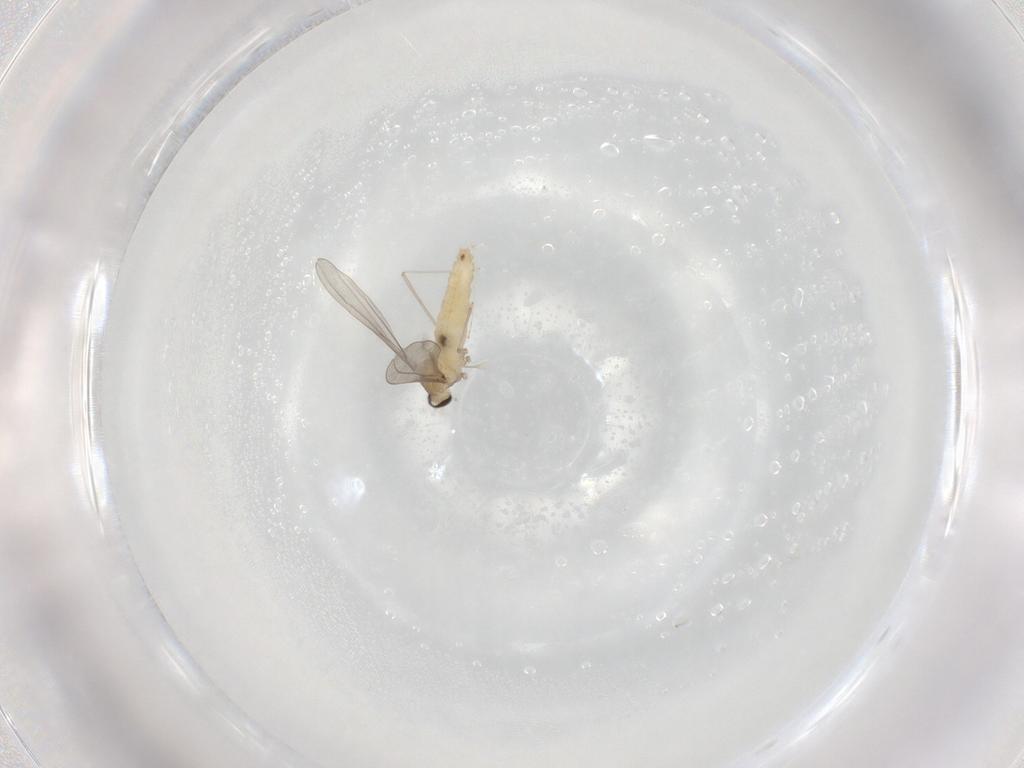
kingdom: Animalia
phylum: Arthropoda
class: Insecta
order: Diptera
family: Cecidomyiidae
